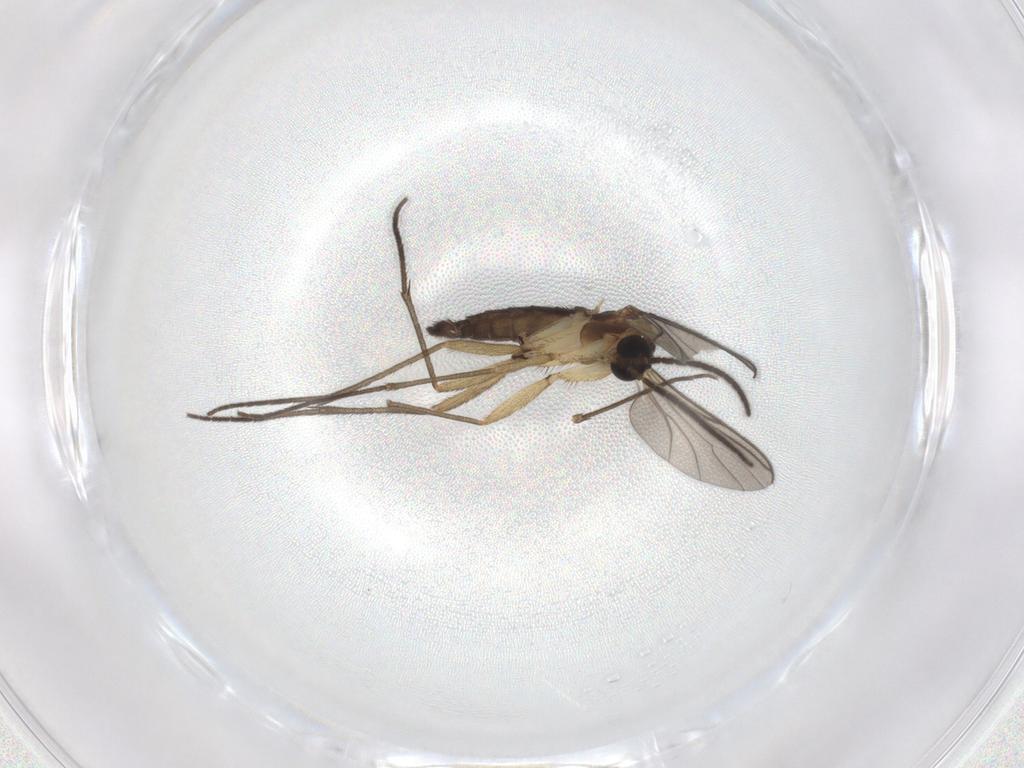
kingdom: Animalia
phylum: Arthropoda
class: Insecta
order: Diptera
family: Sciaridae
